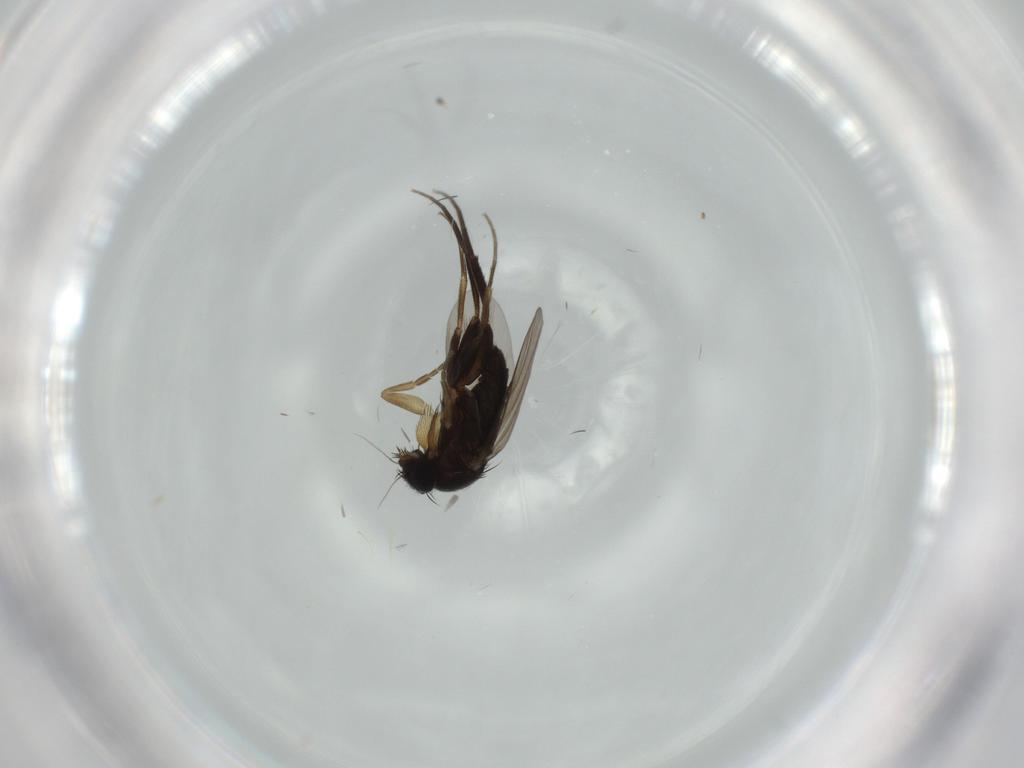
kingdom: Animalia
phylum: Arthropoda
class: Insecta
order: Diptera
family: Phoridae
